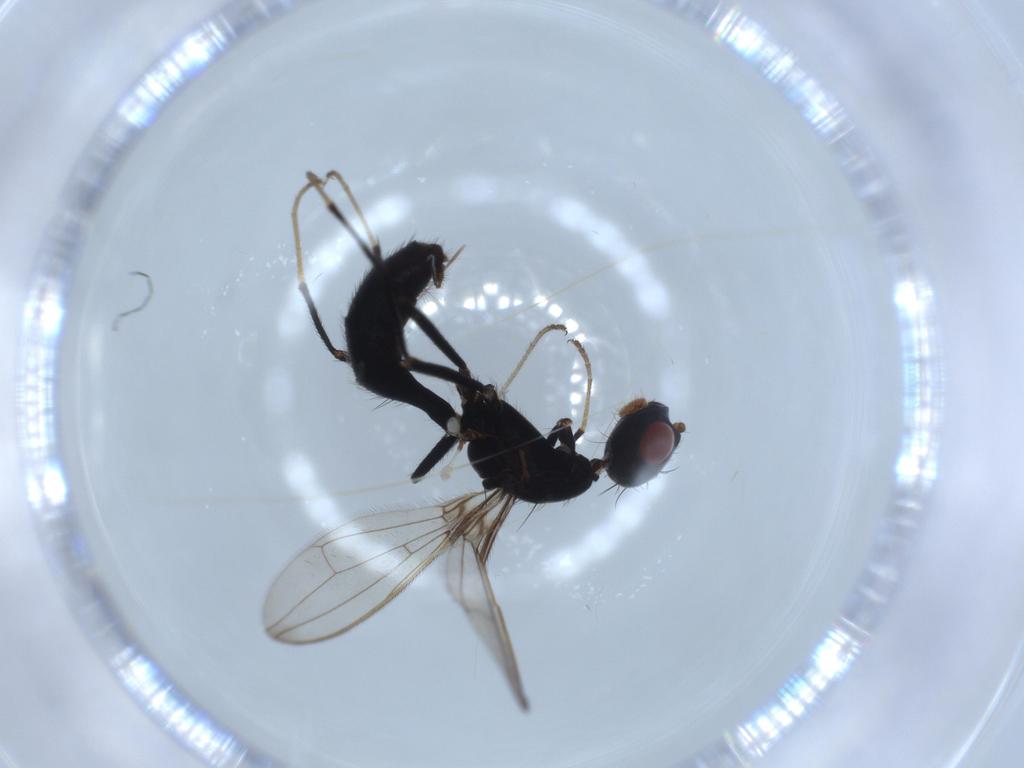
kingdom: Animalia
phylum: Arthropoda
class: Insecta
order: Diptera
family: Richardiidae
